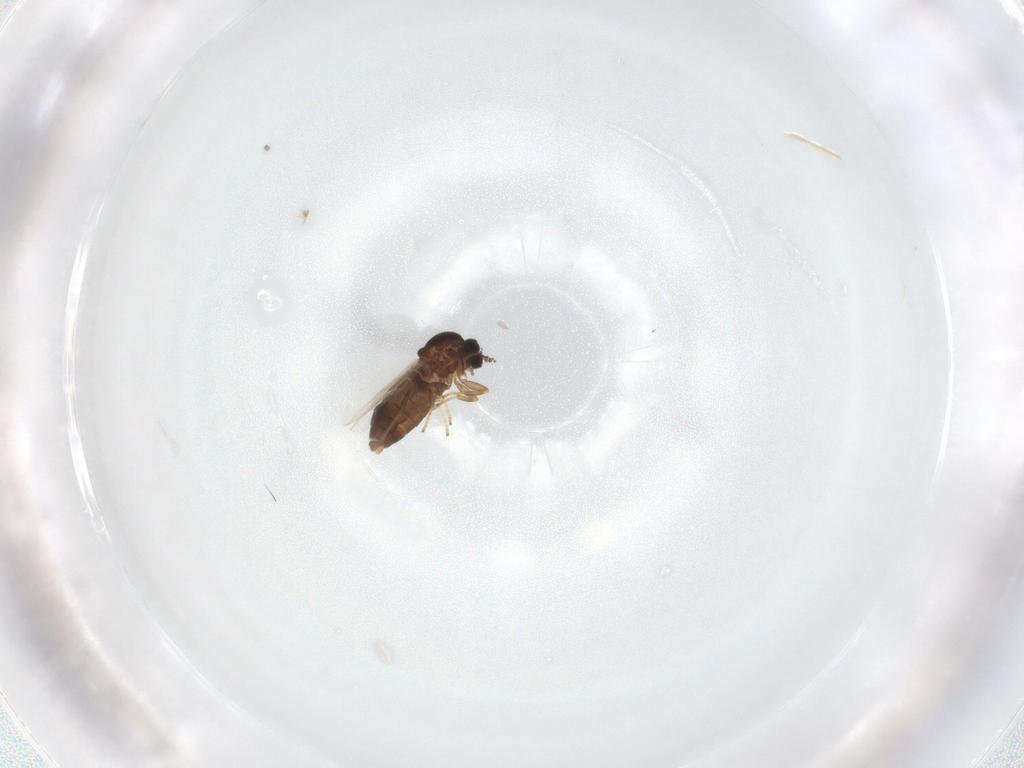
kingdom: Animalia
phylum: Arthropoda
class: Insecta
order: Diptera
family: Scatopsidae
